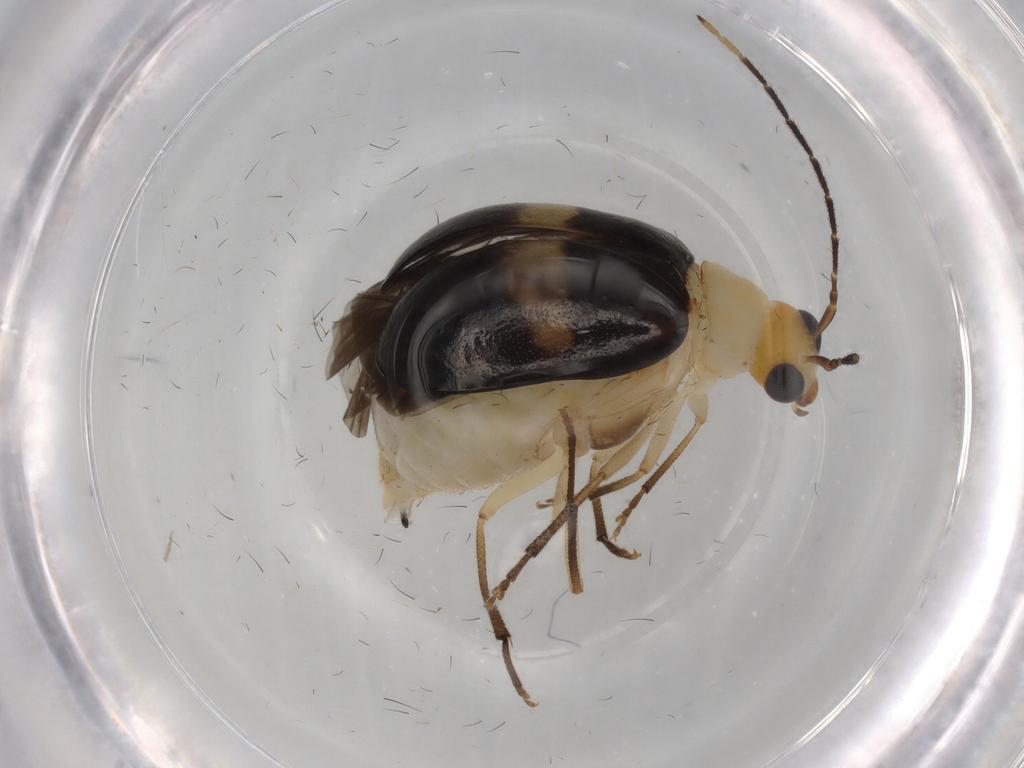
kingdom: Animalia
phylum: Arthropoda
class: Insecta
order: Coleoptera
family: Chrysomelidae
